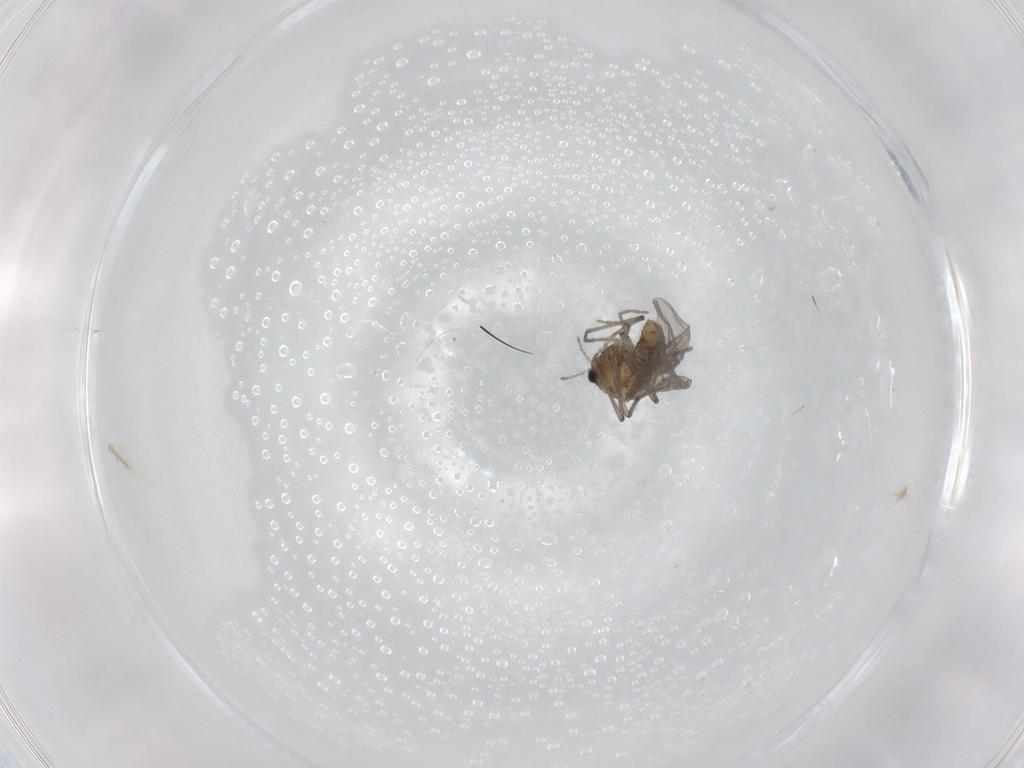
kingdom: Animalia
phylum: Arthropoda
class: Insecta
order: Diptera
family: Chironomidae
